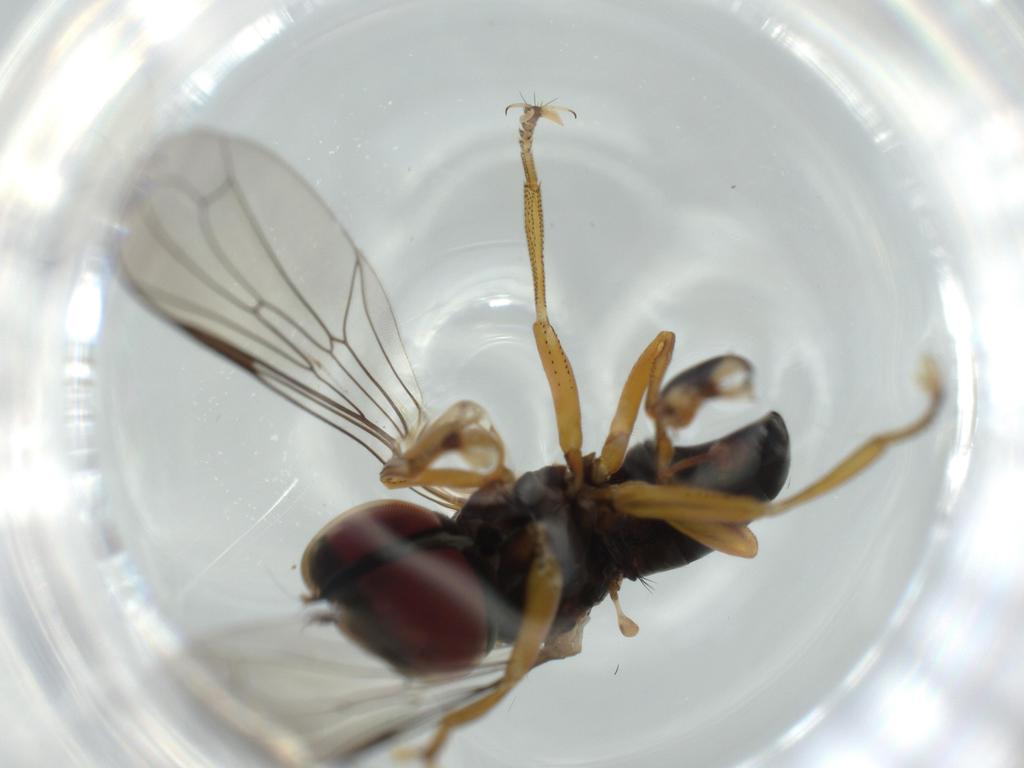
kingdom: Animalia
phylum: Arthropoda
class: Insecta
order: Diptera
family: Pipunculidae
